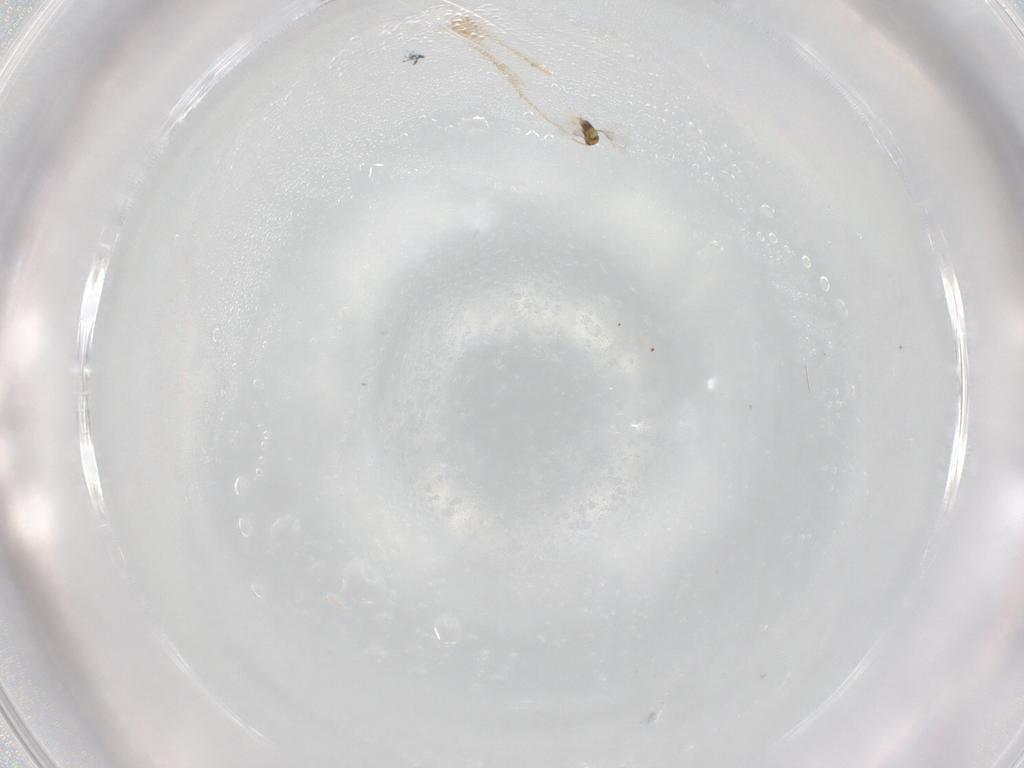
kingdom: Animalia
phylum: Arthropoda
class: Insecta
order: Hymenoptera
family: Aphelinidae
